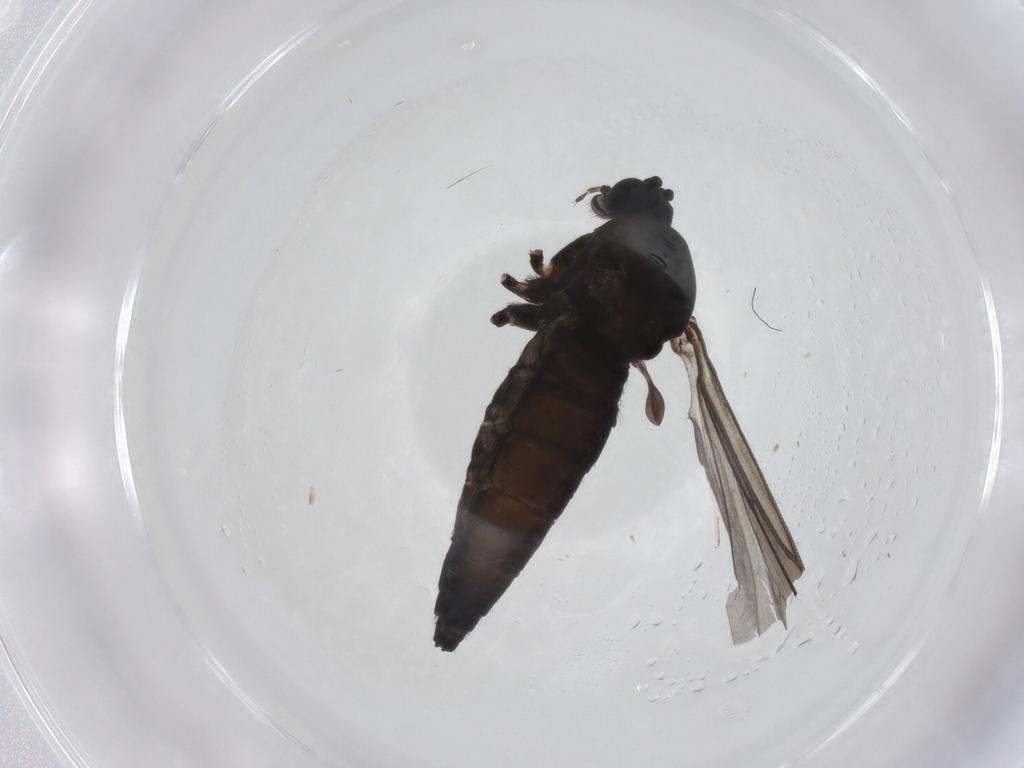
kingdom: Animalia
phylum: Arthropoda
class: Insecta
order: Diptera
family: Sciaridae
